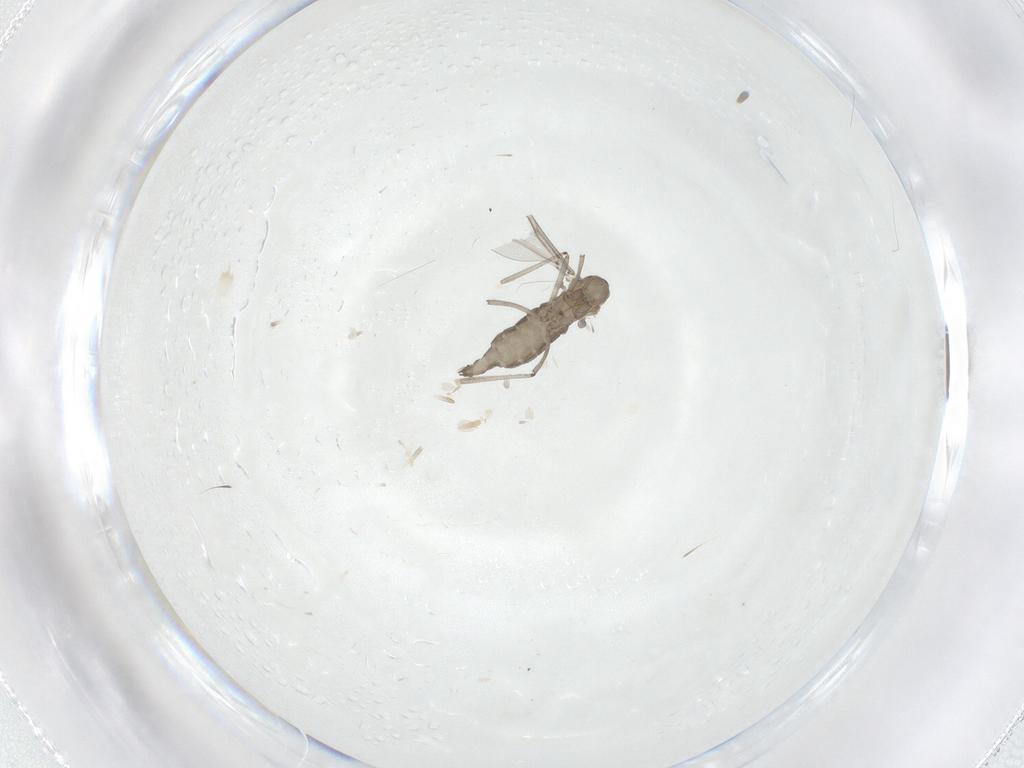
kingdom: Animalia
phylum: Arthropoda
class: Insecta
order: Diptera
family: Cecidomyiidae
